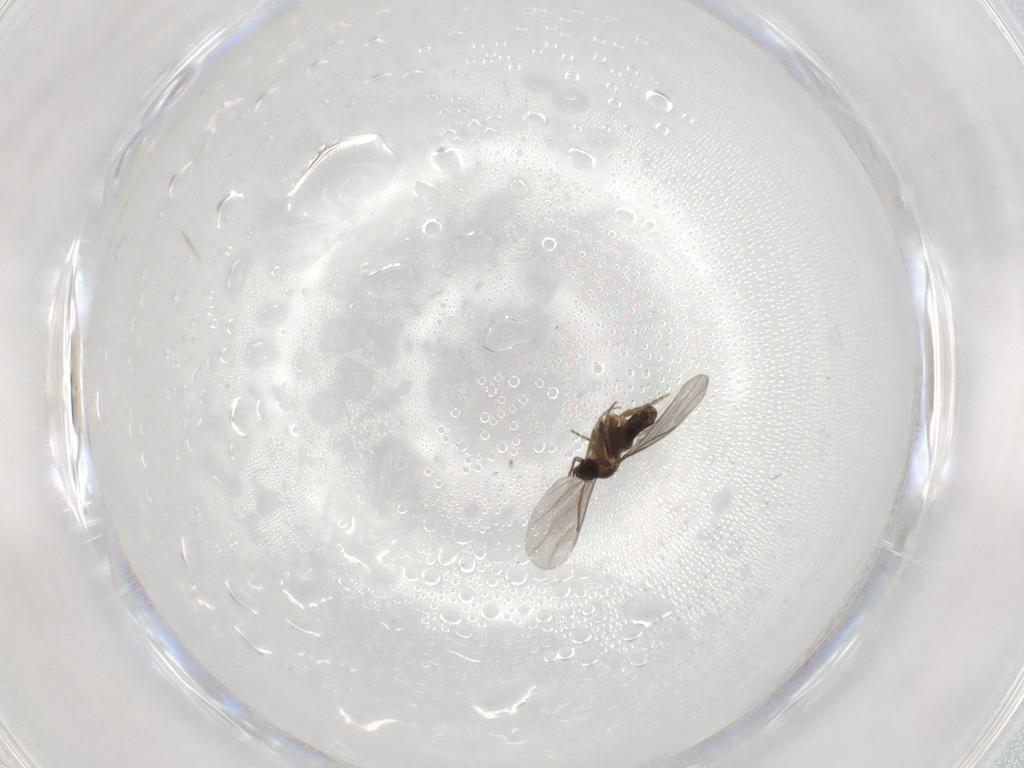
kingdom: Animalia
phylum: Arthropoda
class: Insecta
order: Diptera
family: Phoridae
